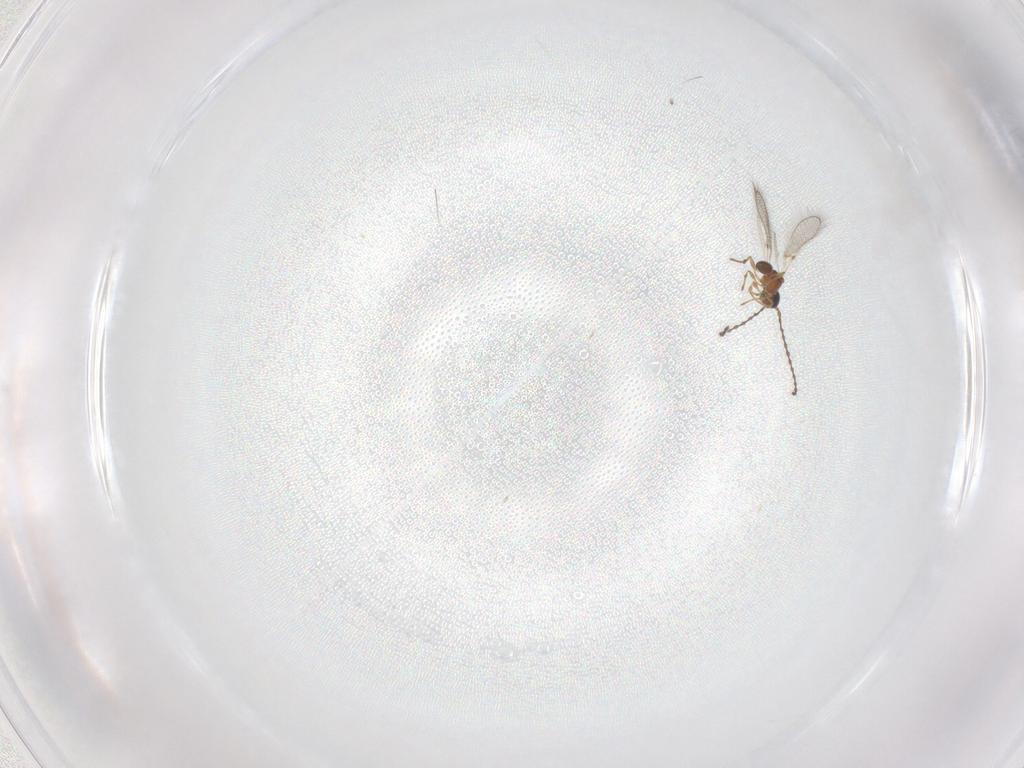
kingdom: Animalia
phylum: Arthropoda
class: Insecta
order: Hymenoptera
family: Diapriidae
